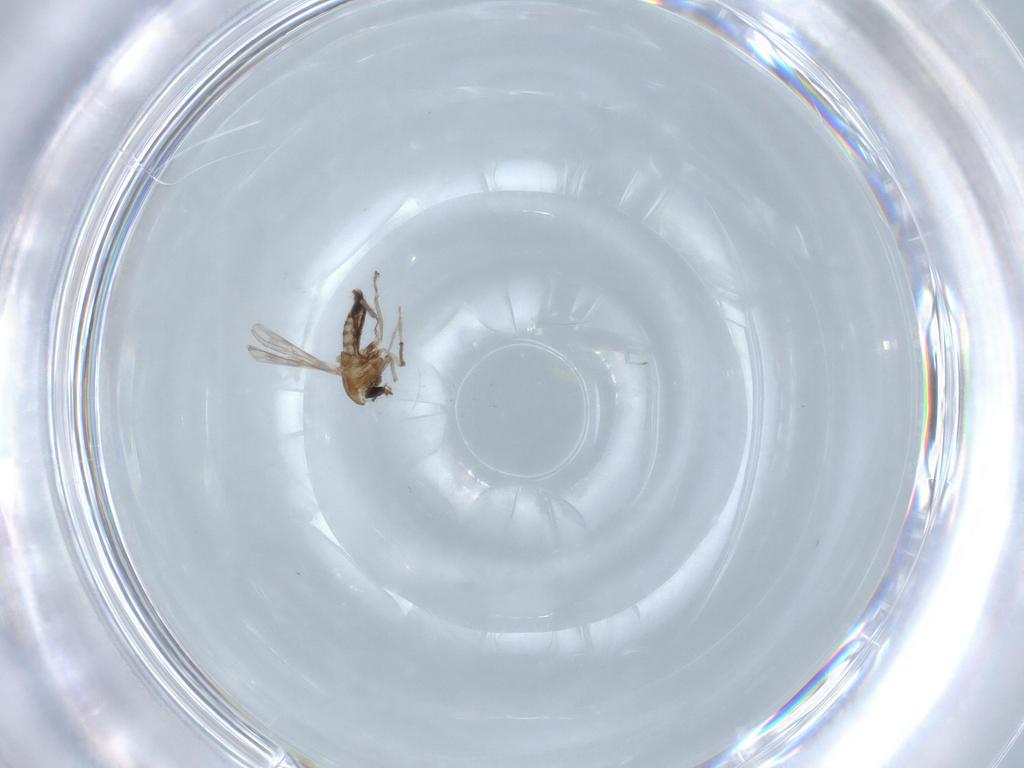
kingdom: Animalia
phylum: Arthropoda
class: Insecta
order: Diptera
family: Chironomidae
